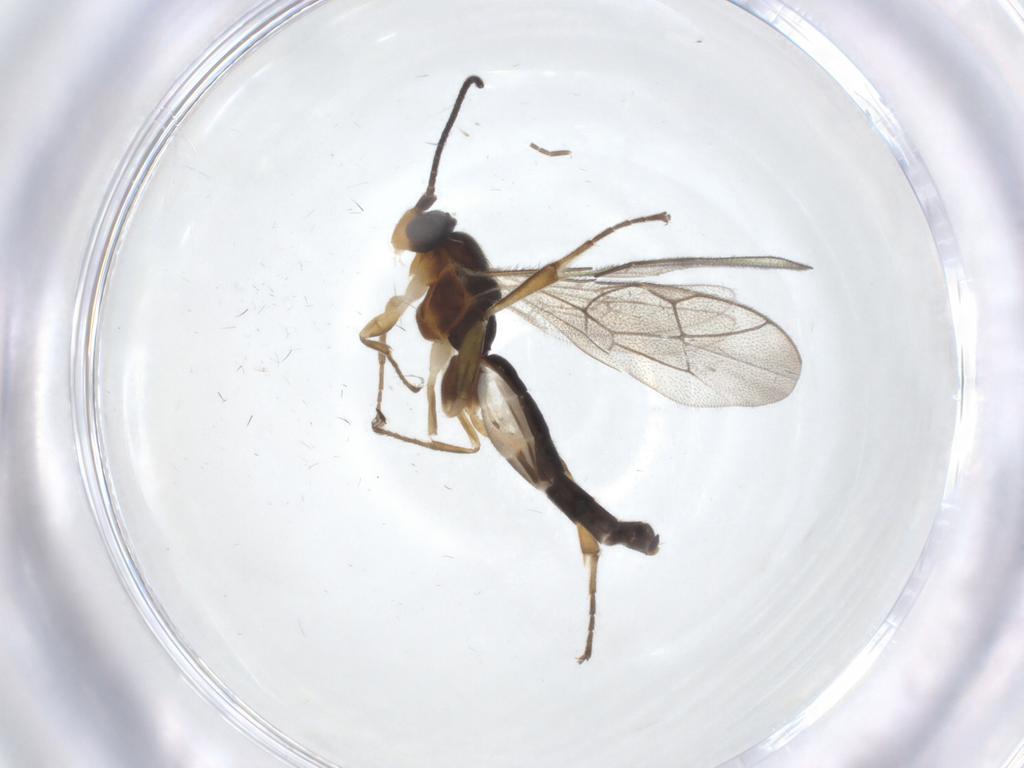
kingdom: Animalia
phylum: Arthropoda
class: Insecta
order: Hymenoptera
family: Ichneumonidae
